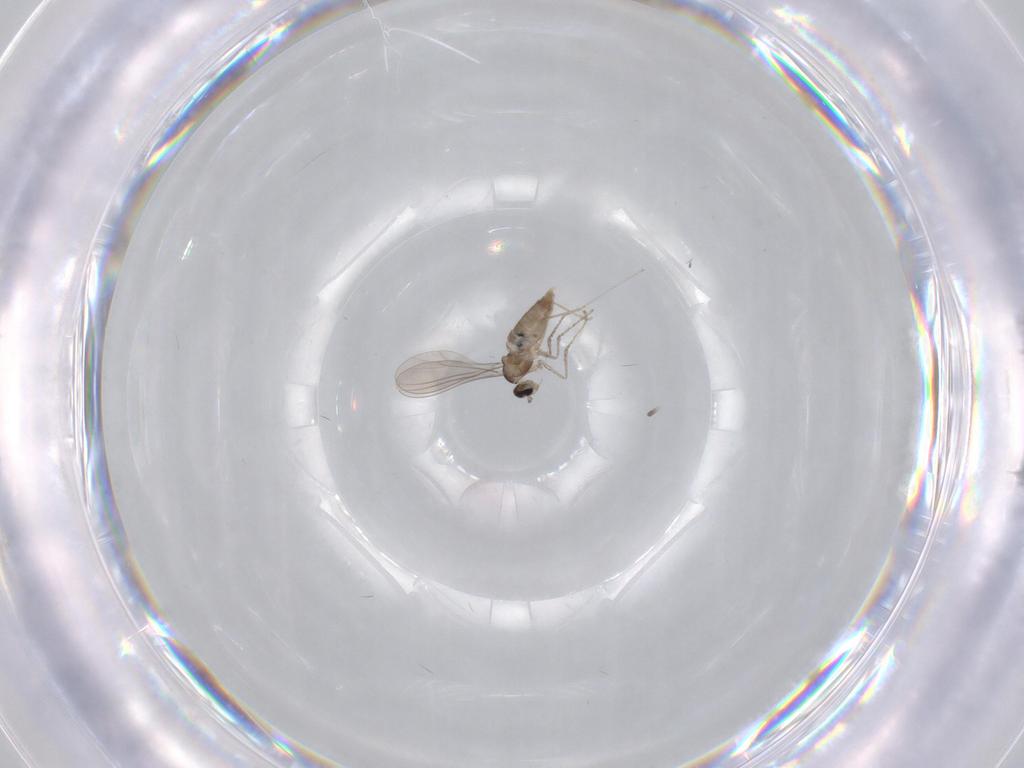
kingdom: Animalia
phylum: Arthropoda
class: Insecta
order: Diptera
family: Cecidomyiidae
